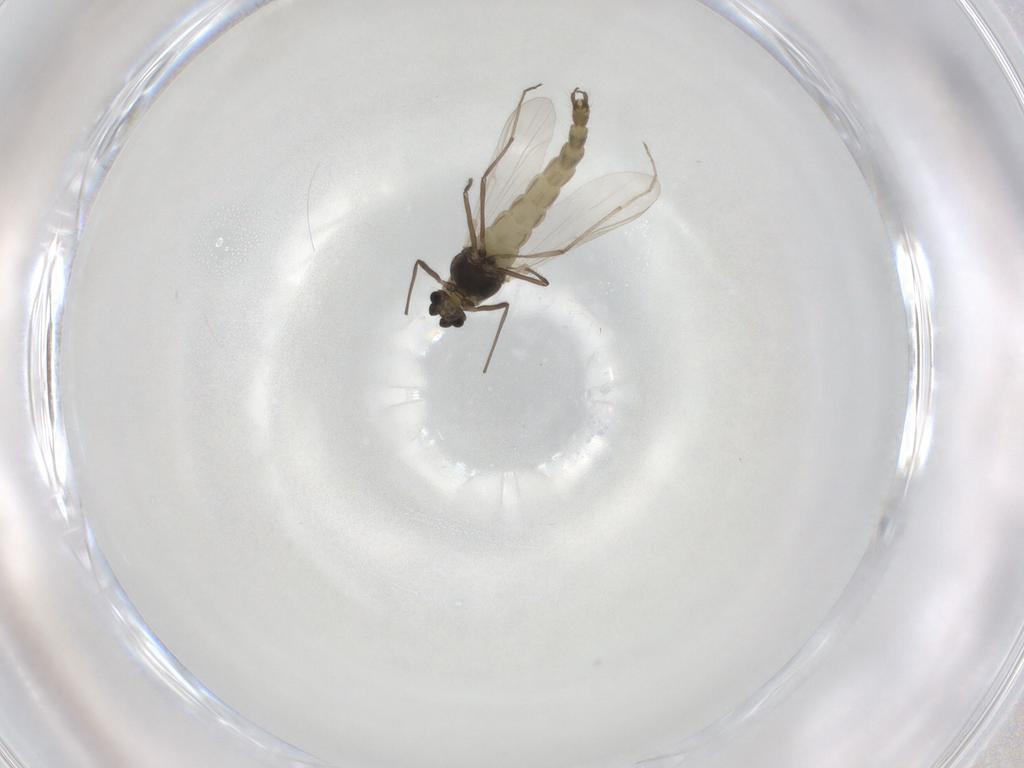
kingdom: Animalia
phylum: Arthropoda
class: Insecta
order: Diptera
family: Chironomidae
